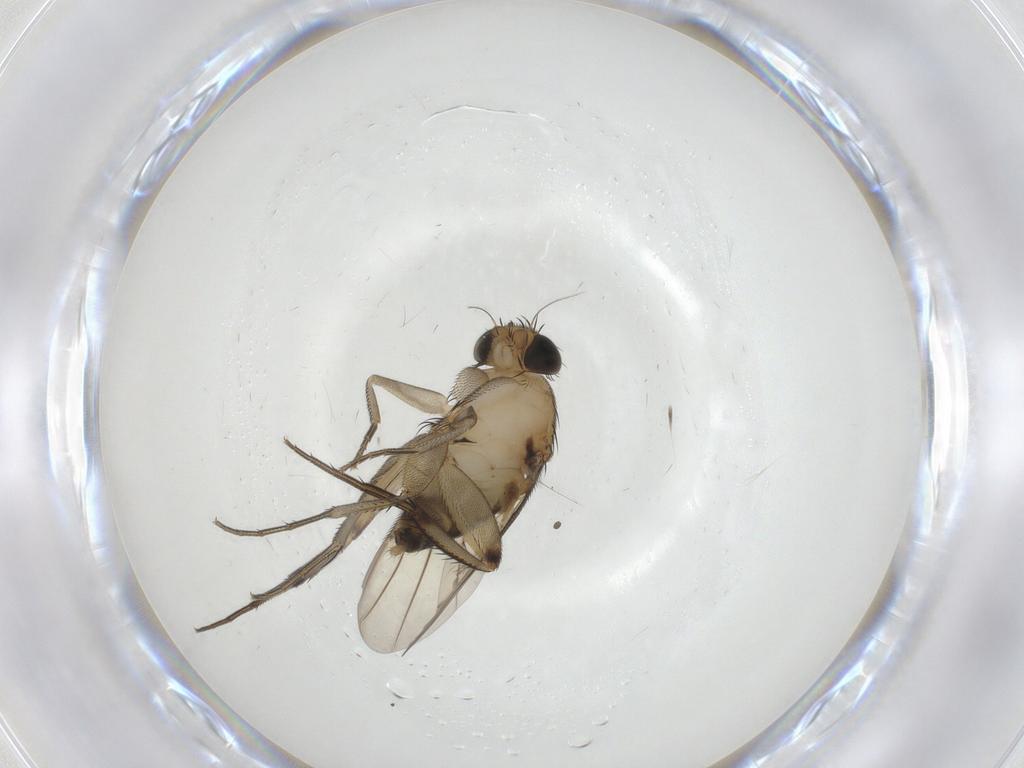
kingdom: Animalia
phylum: Arthropoda
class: Insecta
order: Diptera
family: Phoridae
